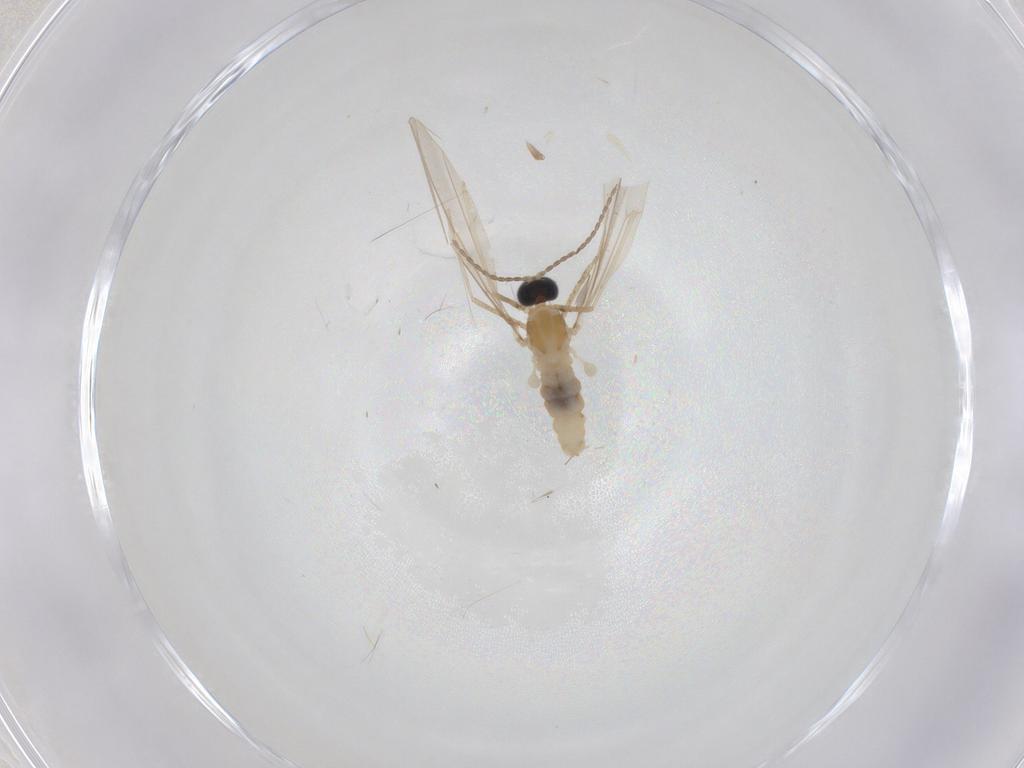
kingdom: Animalia
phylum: Arthropoda
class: Insecta
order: Diptera
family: Cecidomyiidae
